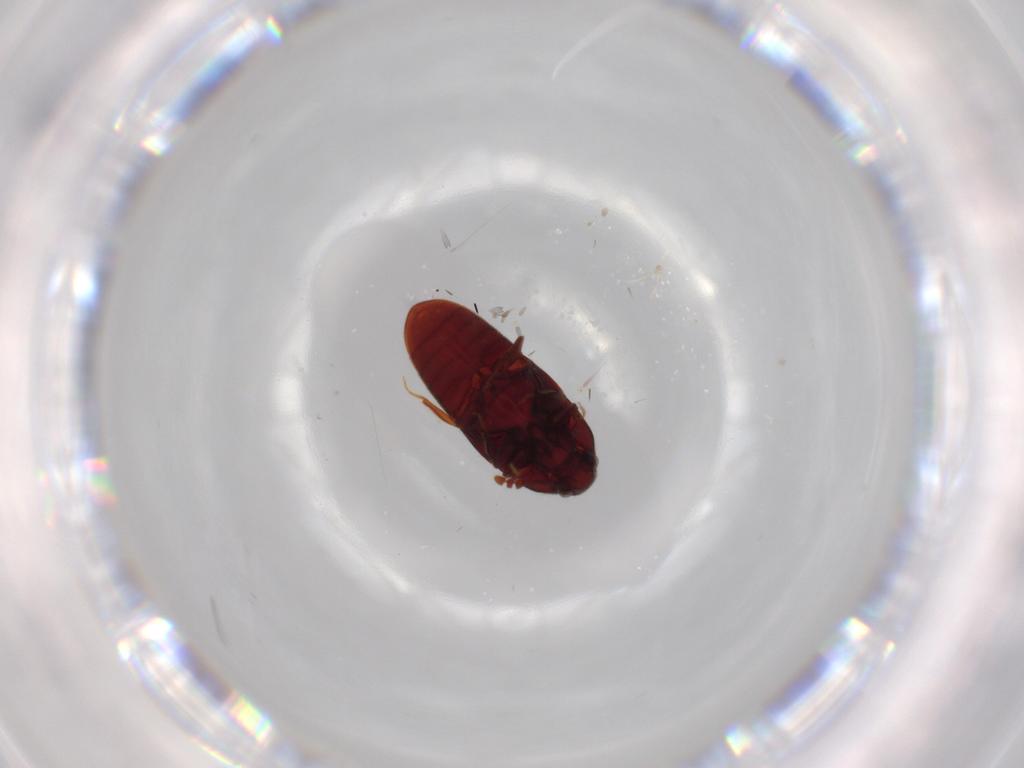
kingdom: Animalia
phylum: Arthropoda
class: Insecta
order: Coleoptera
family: Throscidae
